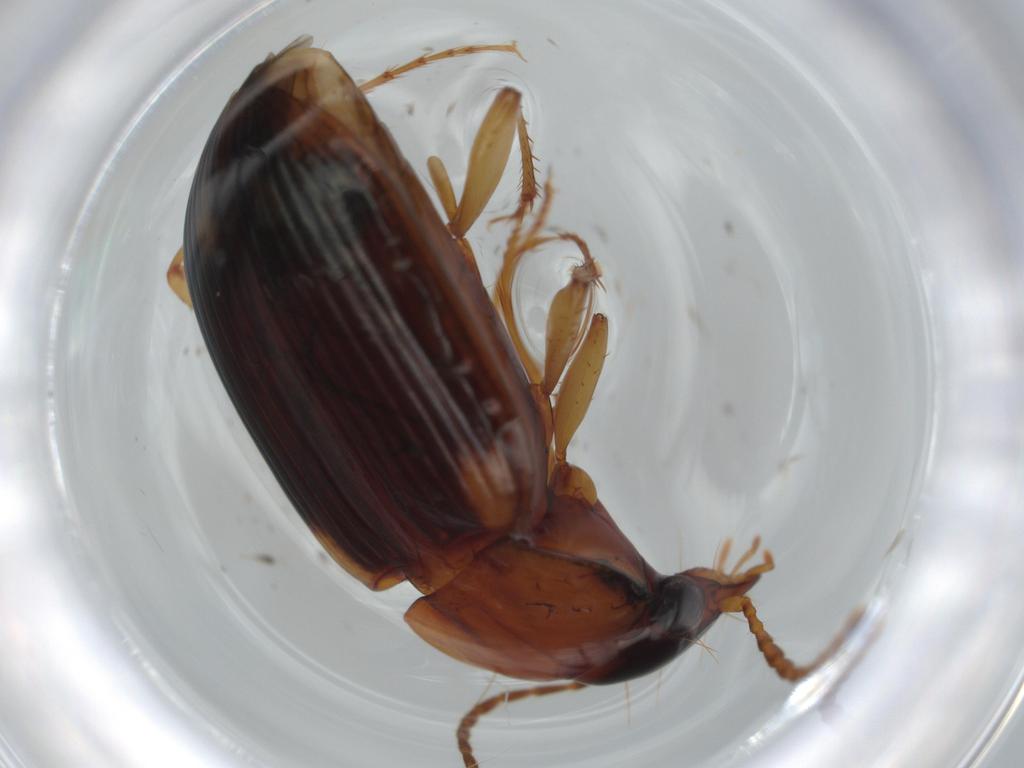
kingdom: Animalia
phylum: Arthropoda
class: Insecta
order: Coleoptera
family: Carabidae
